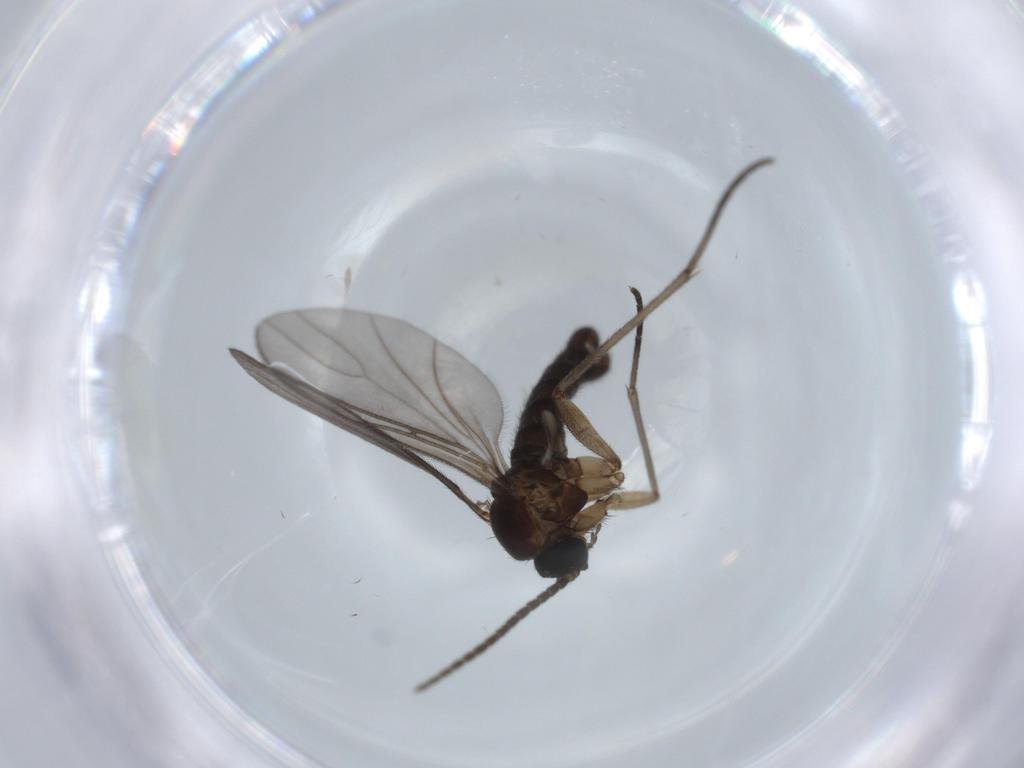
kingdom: Animalia
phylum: Arthropoda
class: Insecta
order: Diptera
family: Sciaridae
